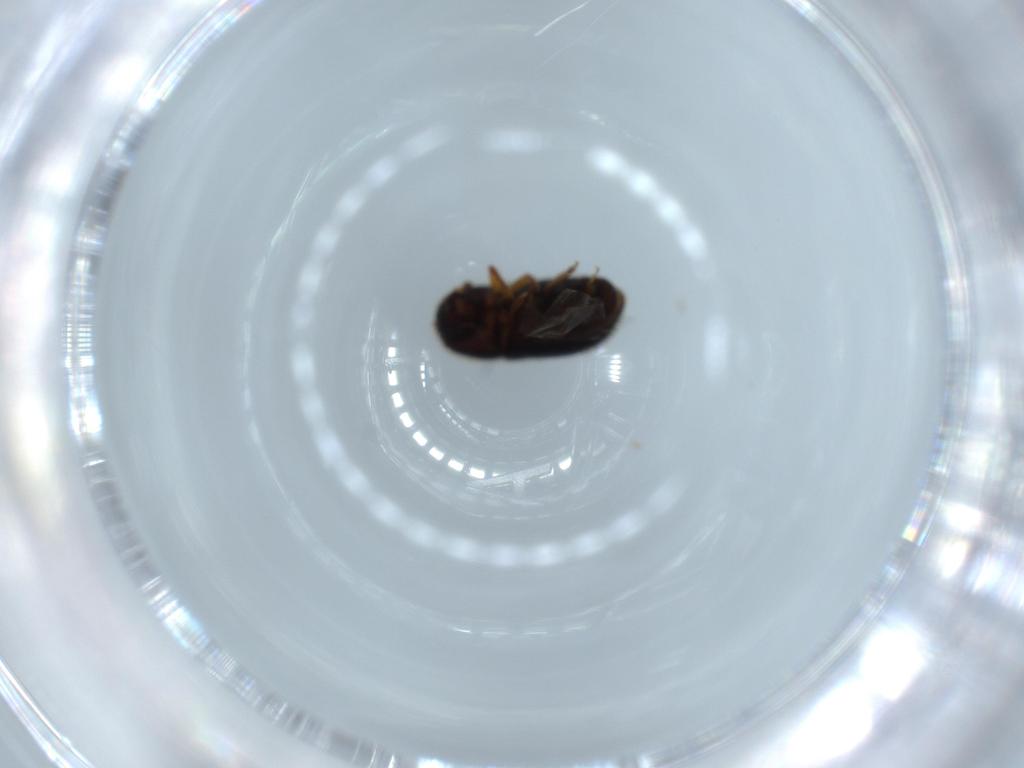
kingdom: Animalia
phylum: Arthropoda
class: Insecta
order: Coleoptera
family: Curculionidae
